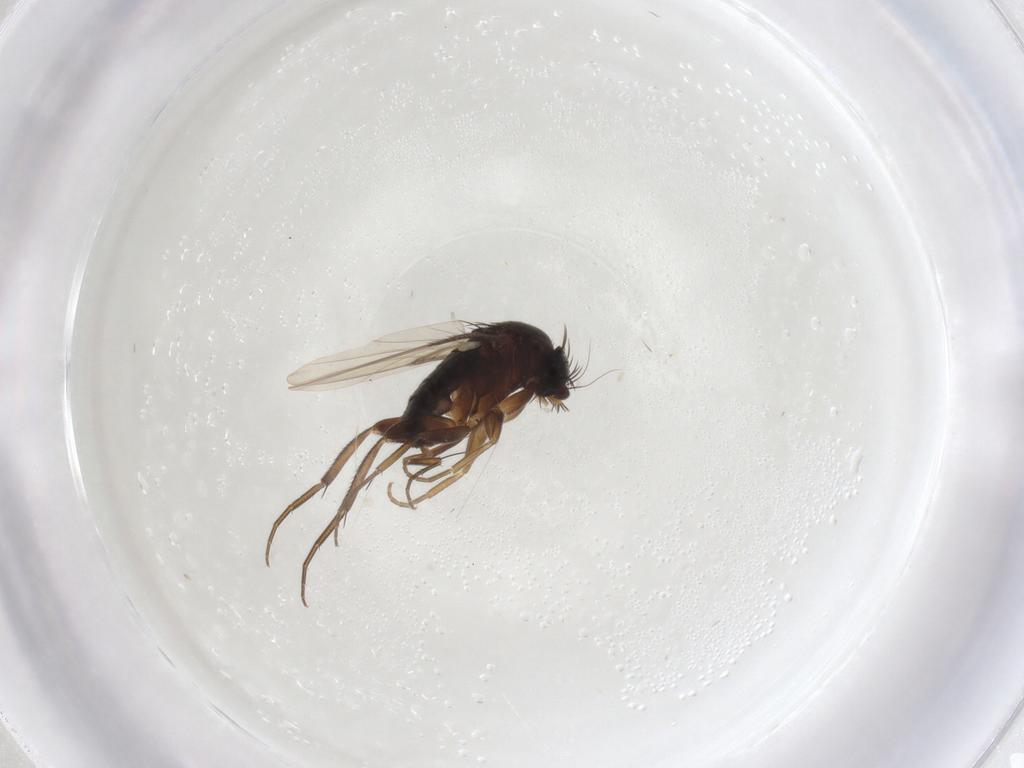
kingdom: Animalia
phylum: Arthropoda
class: Insecta
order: Diptera
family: Phoridae
